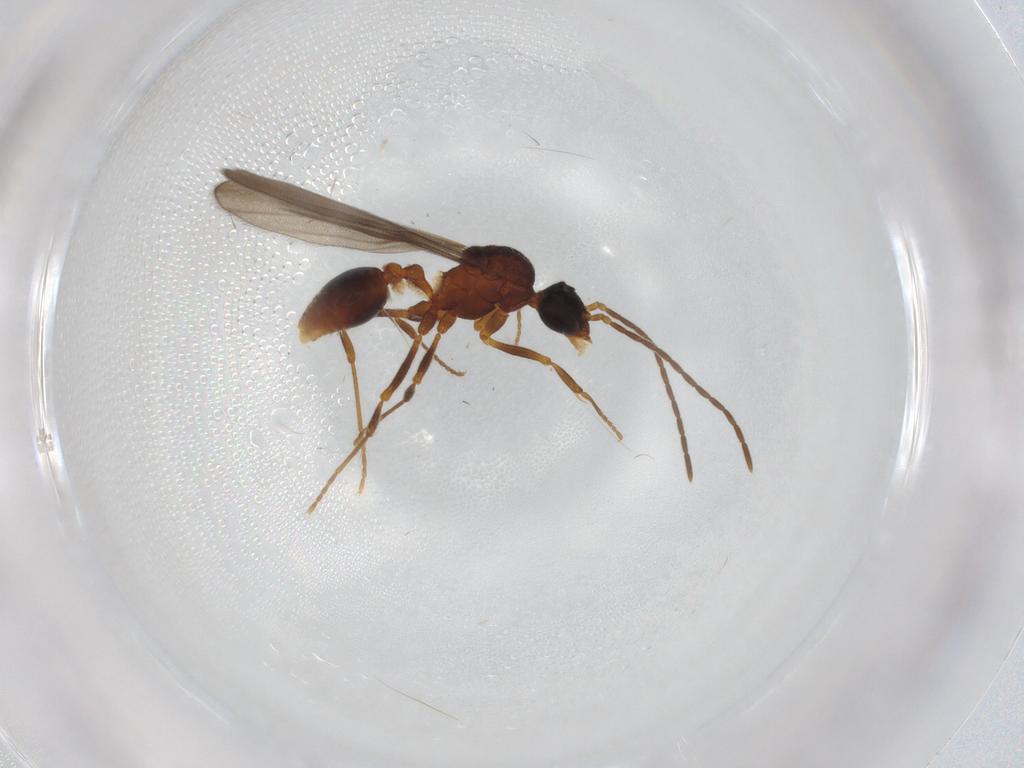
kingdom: Animalia
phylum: Arthropoda
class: Insecta
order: Hymenoptera
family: Formicidae
